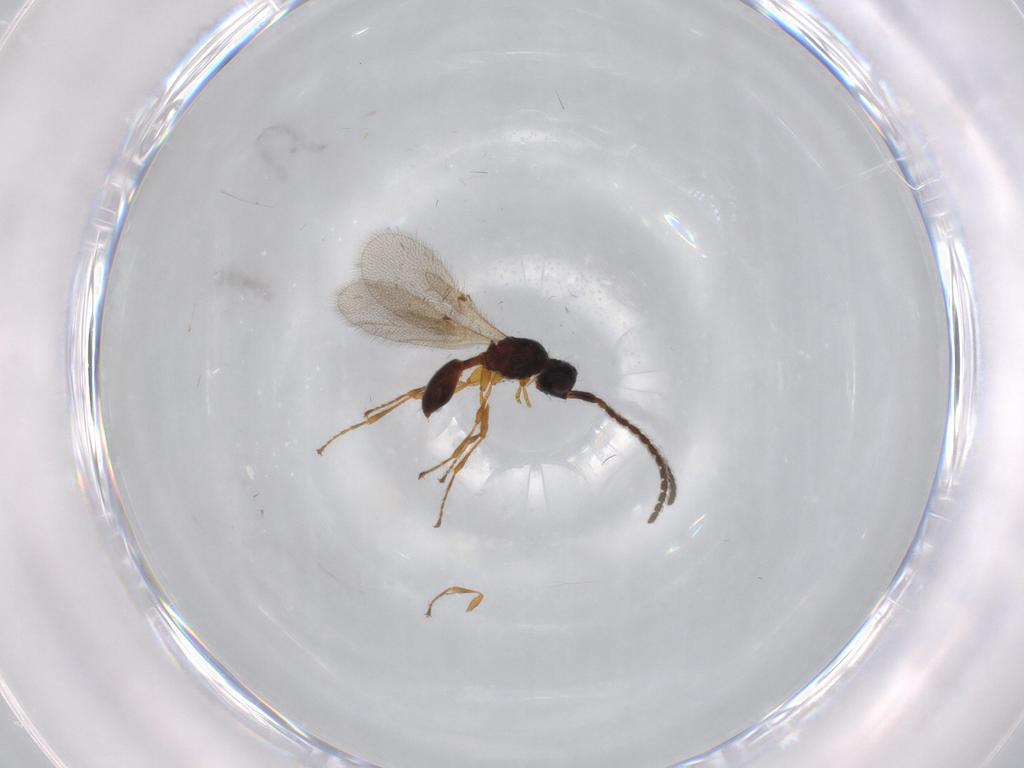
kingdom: Animalia
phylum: Arthropoda
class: Insecta
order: Hymenoptera
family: Diapriidae
